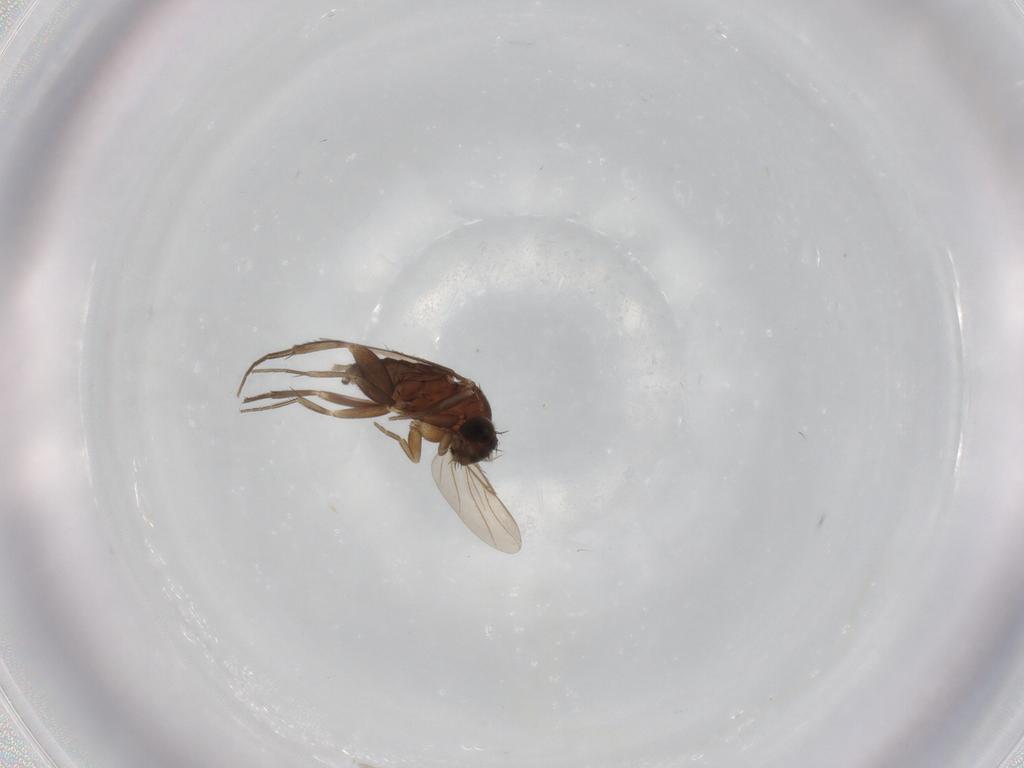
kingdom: Animalia
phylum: Arthropoda
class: Insecta
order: Diptera
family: Phoridae
